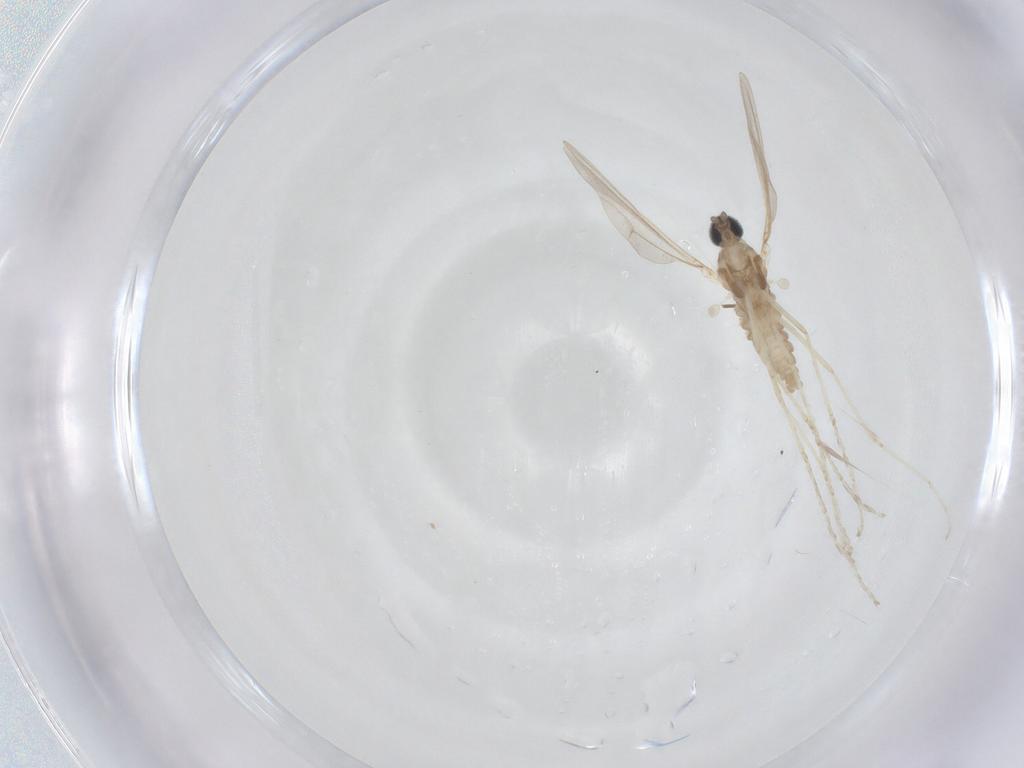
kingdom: Animalia
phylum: Arthropoda
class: Insecta
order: Diptera
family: Cecidomyiidae
